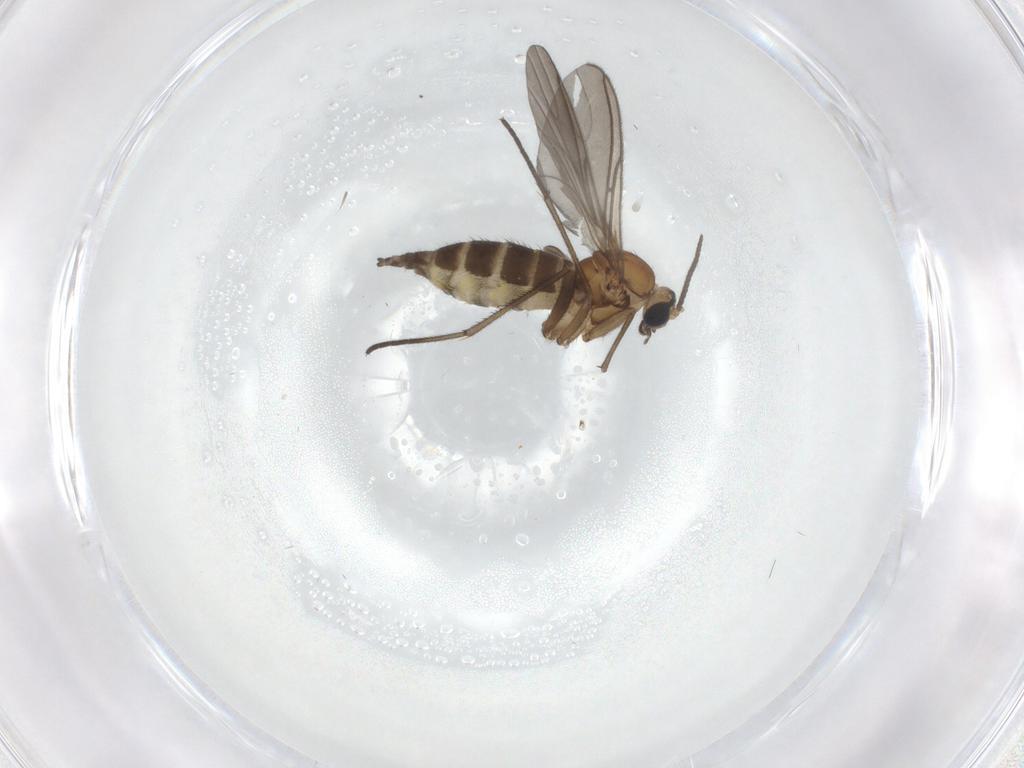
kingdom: Animalia
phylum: Arthropoda
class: Insecta
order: Diptera
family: Sciaridae
